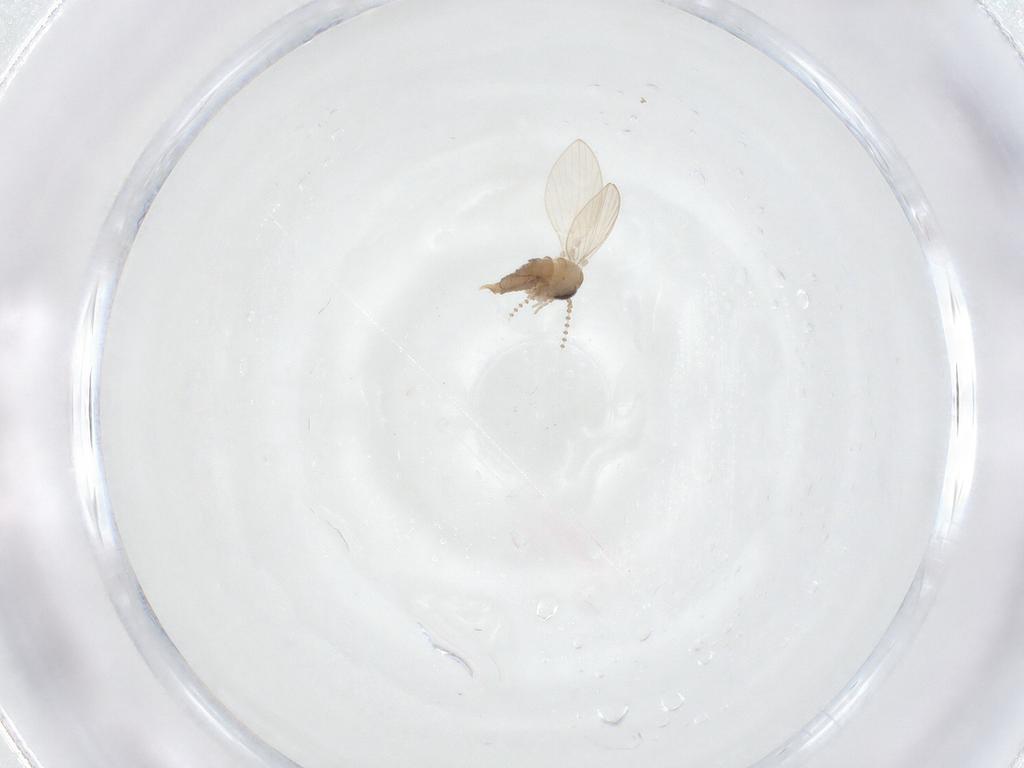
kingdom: Animalia
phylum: Arthropoda
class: Insecta
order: Diptera
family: Psychodidae
